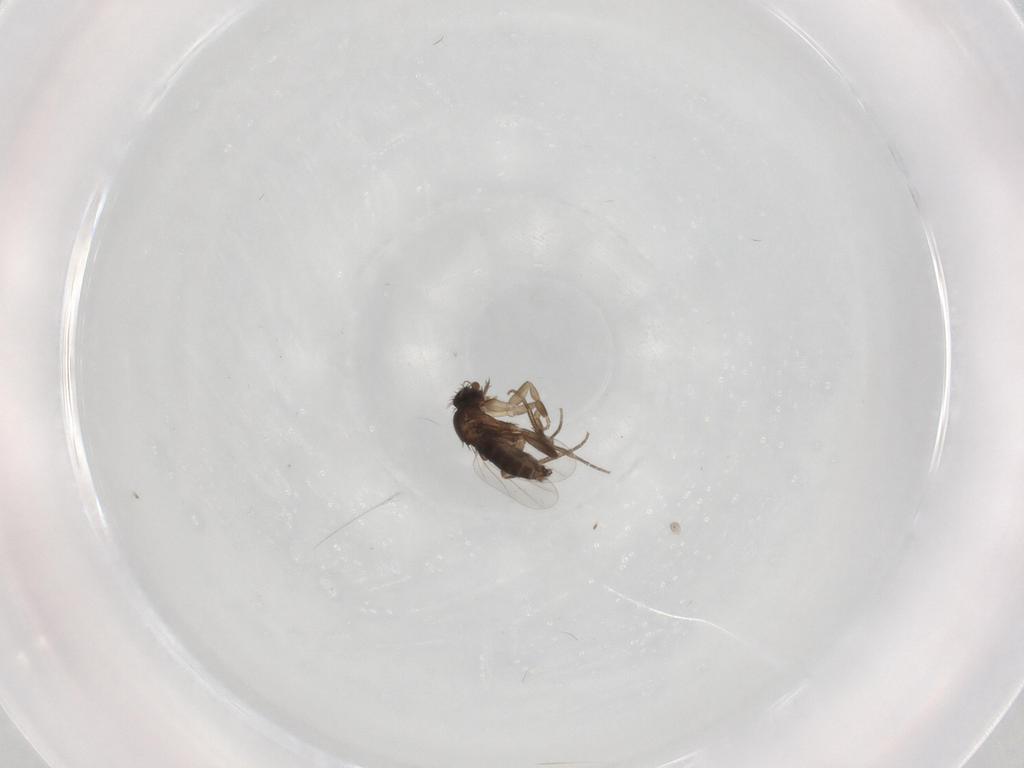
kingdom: Animalia
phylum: Arthropoda
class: Insecta
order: Diptera
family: Phoridae
